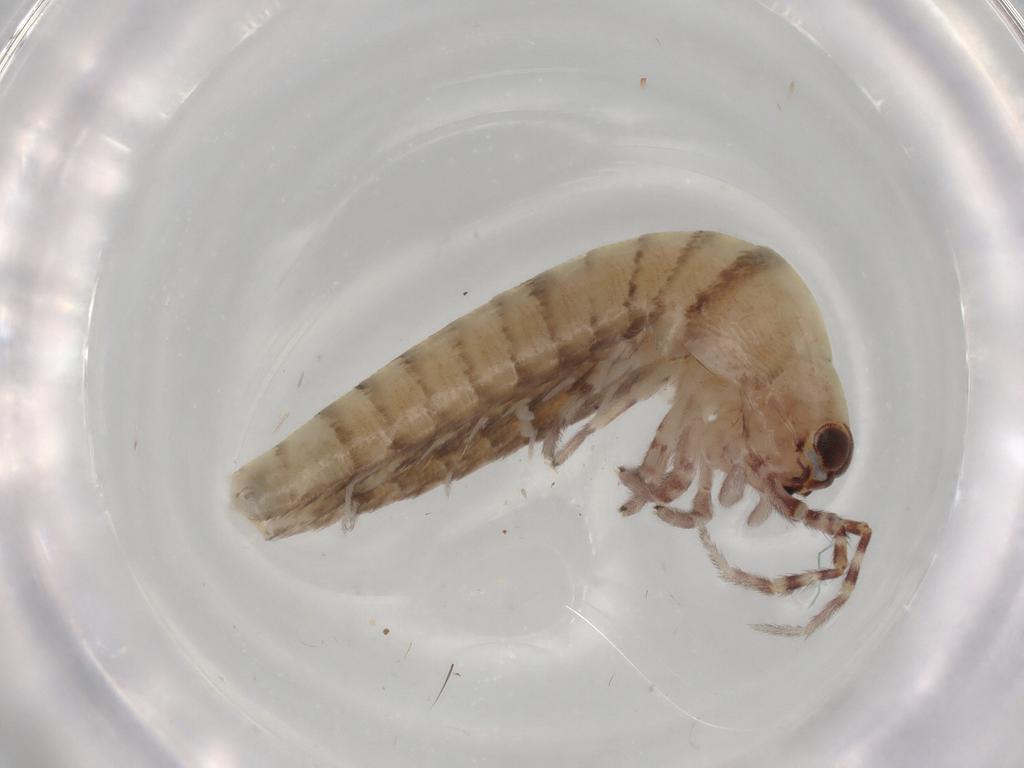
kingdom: Animalia
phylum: Arthropoda
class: Insecta
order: Archaeognatha
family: Machilidae
